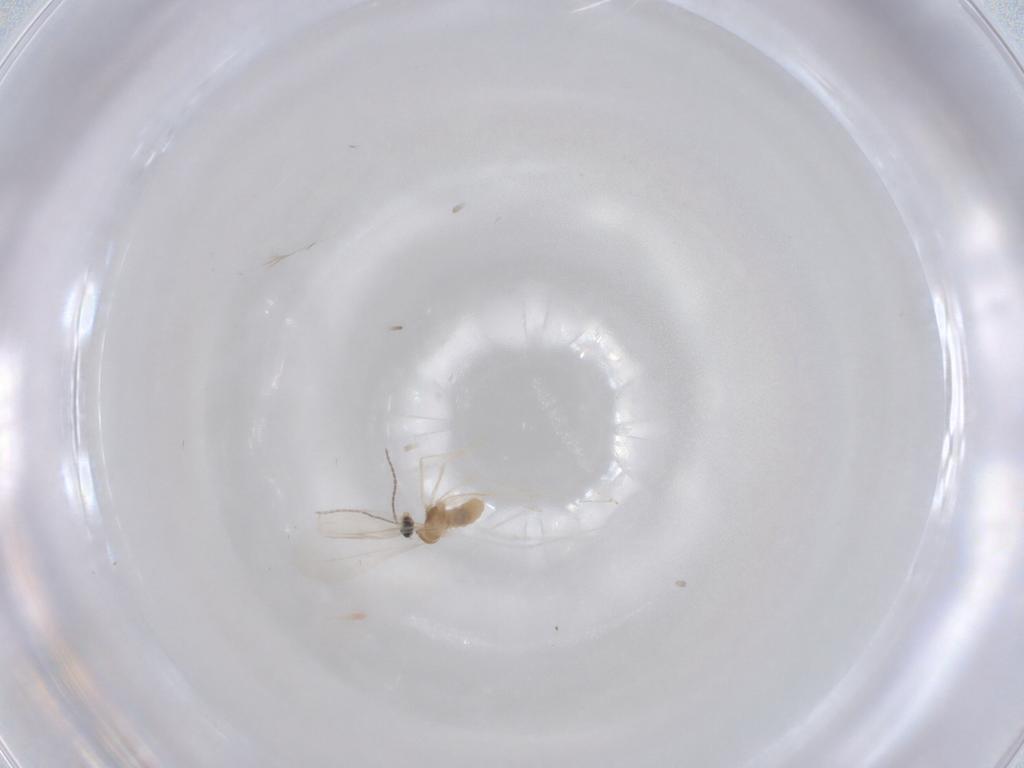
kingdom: Animalia
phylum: Arthropoda
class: Insecta
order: Diptera
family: Cecidomyiidae
